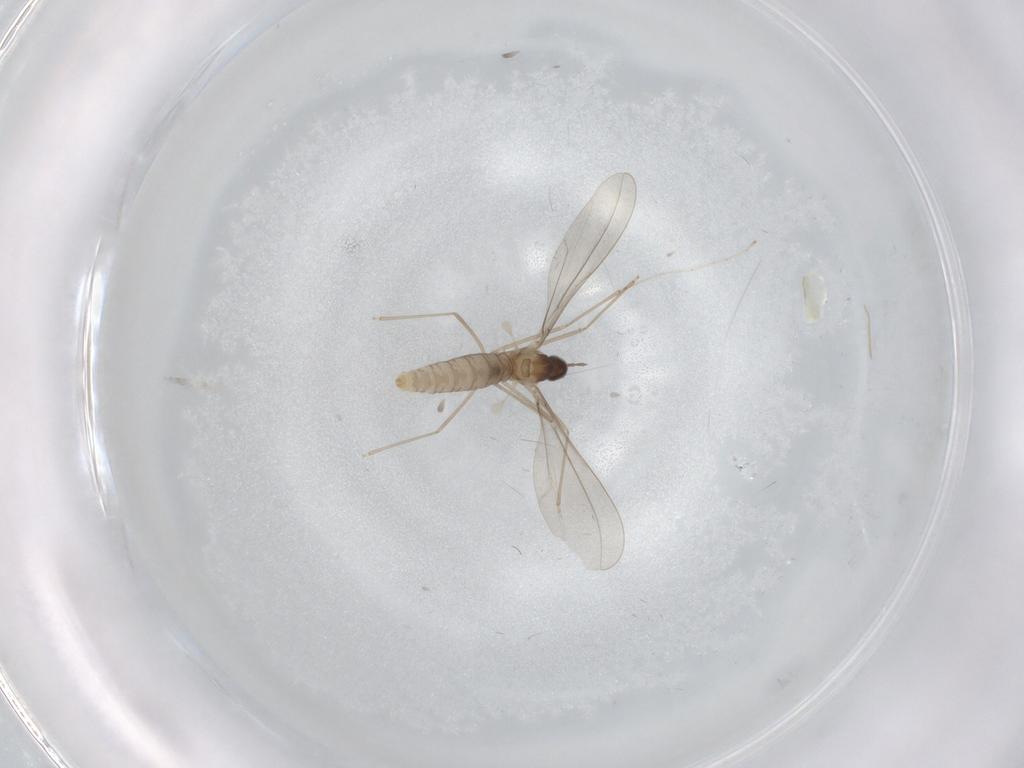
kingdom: Animalia
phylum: Arthropoda
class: Insecta
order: Diptera
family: Cecidomyiidae
